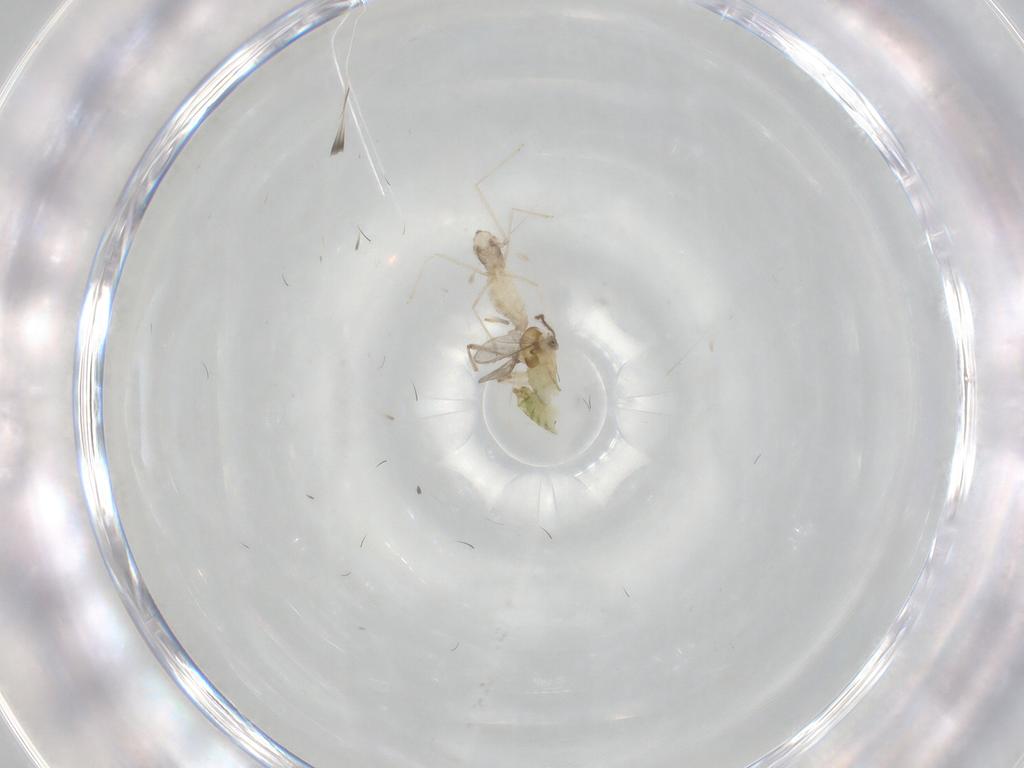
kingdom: Animalia
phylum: Arthropoda
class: Insecta
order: Diptera
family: Chironomidae
